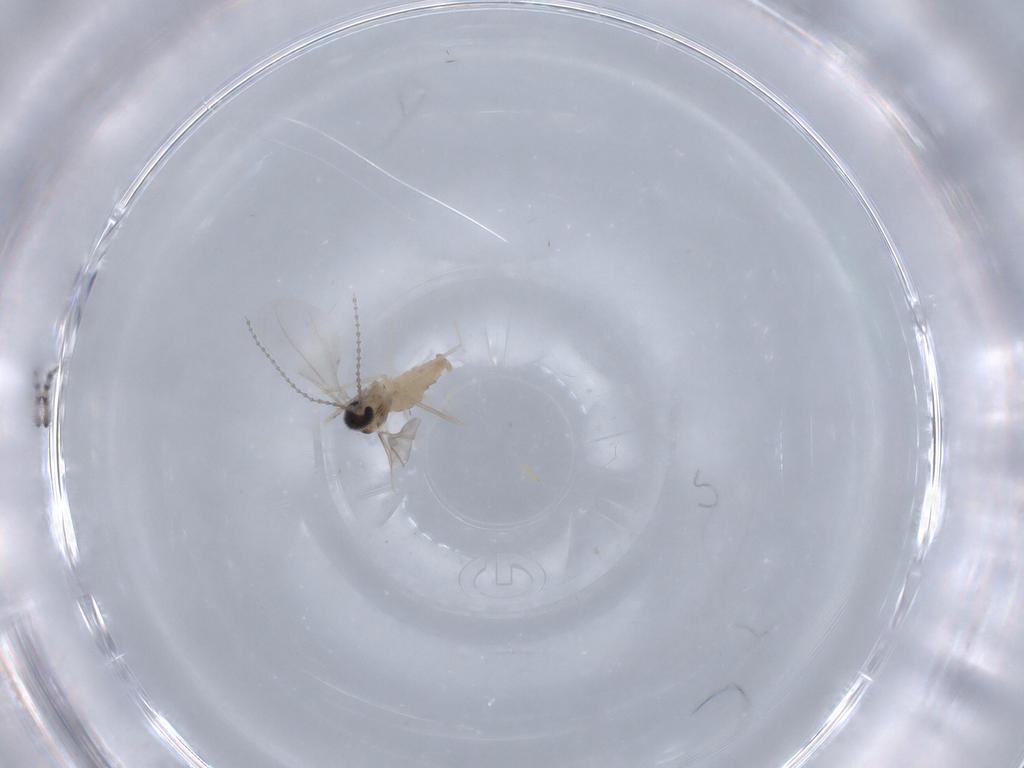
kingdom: Animalia
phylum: Arthropoda
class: Insecta
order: Diptera
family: Cecidomyiidae
